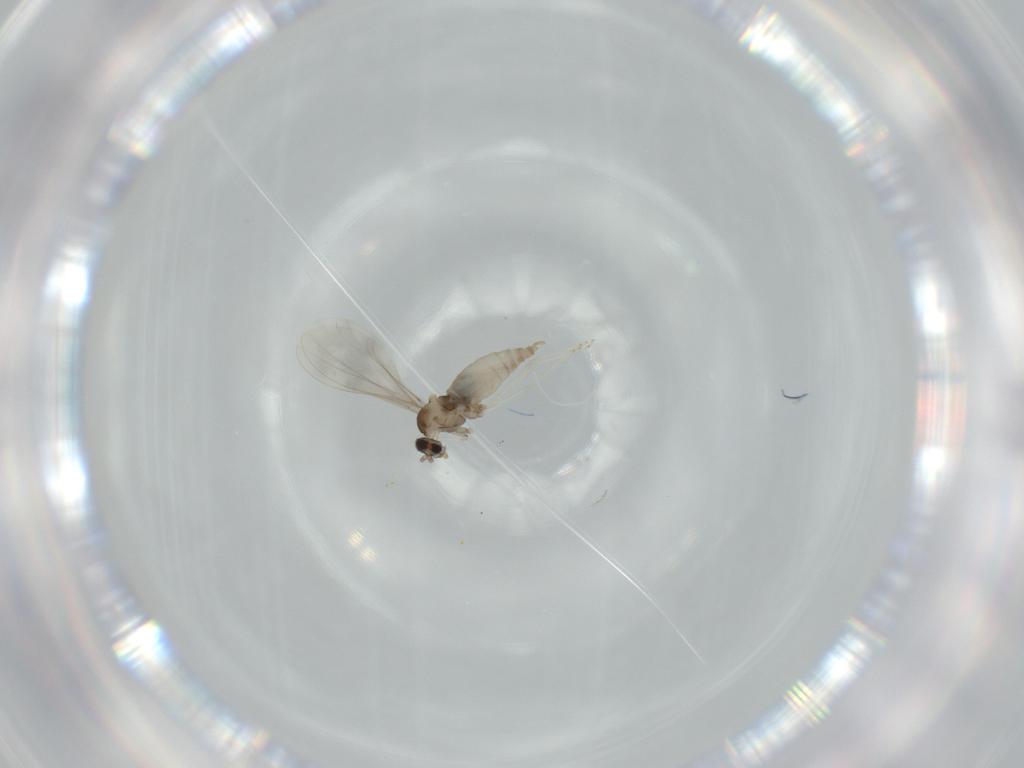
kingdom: Animalia
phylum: Arthropoda
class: Insecta
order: Diptera
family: Cecidomyiidae
